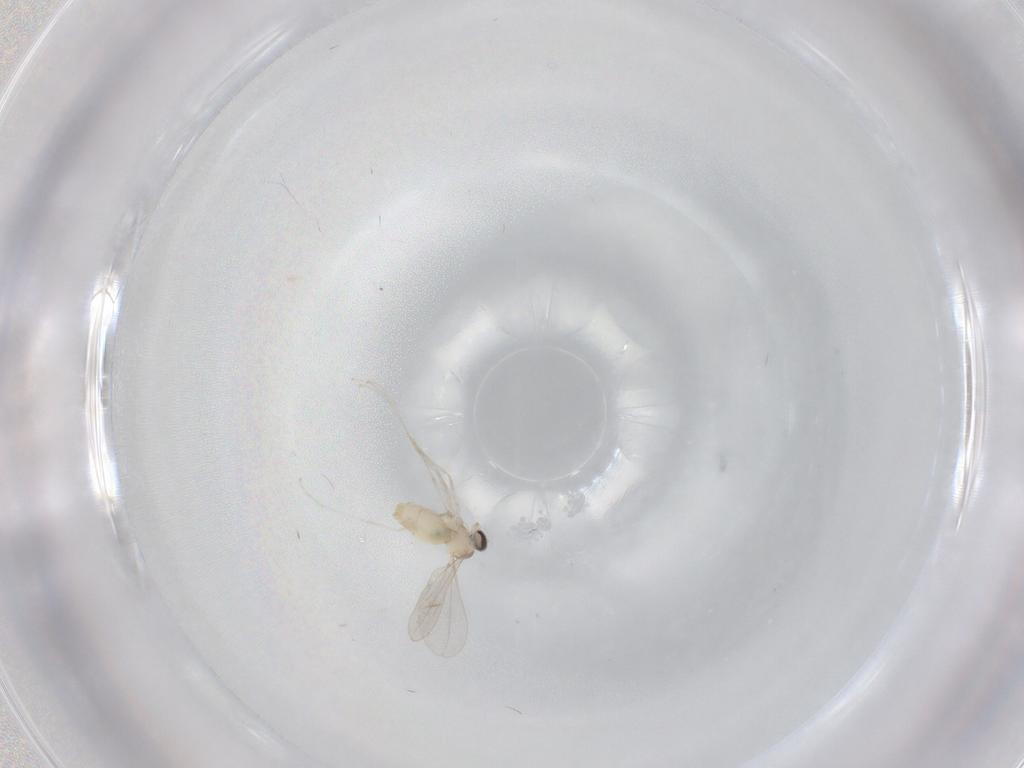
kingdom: Animalia
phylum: Arthropoda
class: Insecta
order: Diptera
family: Cecidomyiidae
